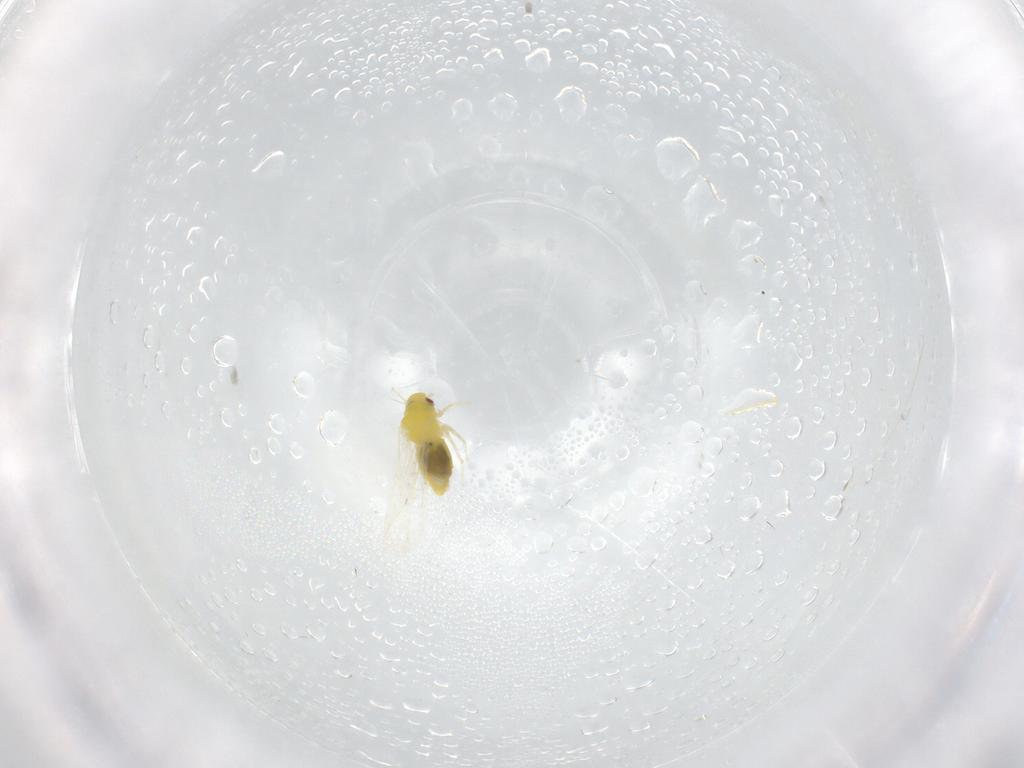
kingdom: Animalia
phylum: Arthropoda
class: Insecta
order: Hemiptera
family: Aleyrodidae
